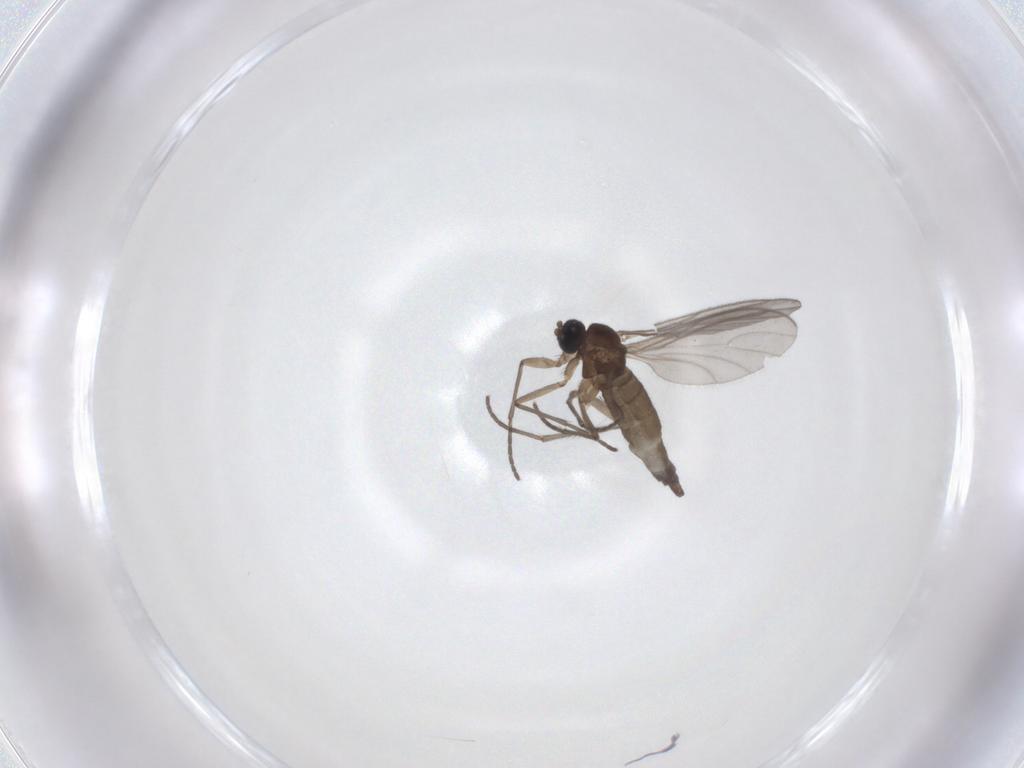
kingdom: Animalia
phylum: Arthropoda
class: Insecta
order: Diptera
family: Sciaridae
